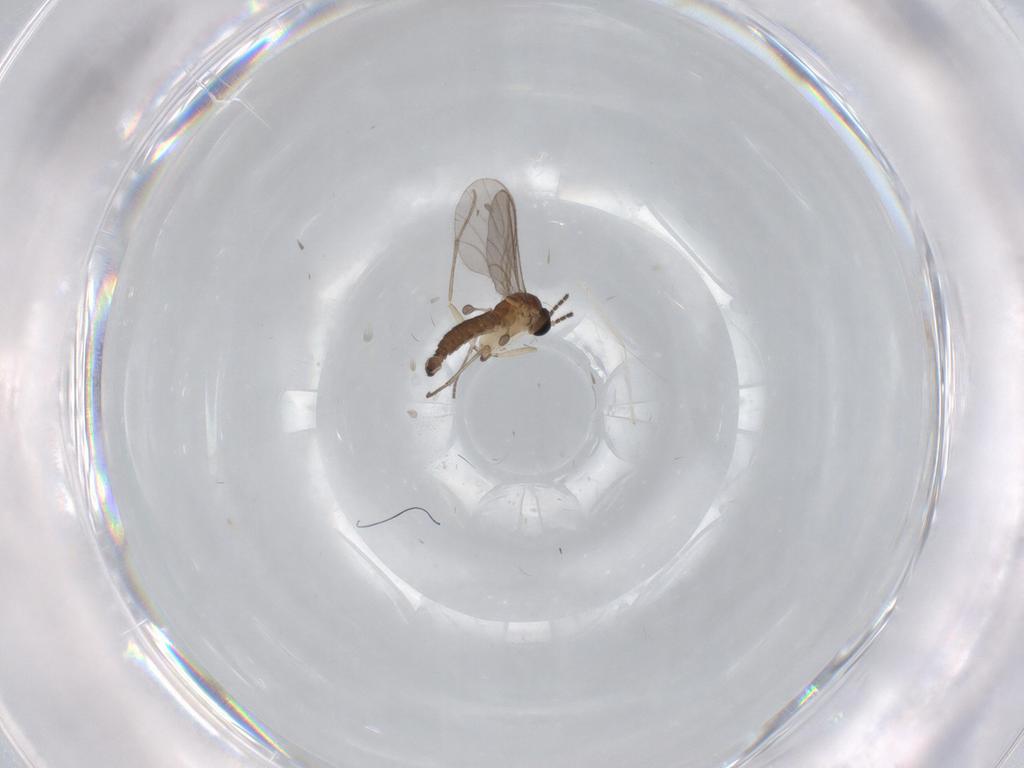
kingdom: Animalia
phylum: Arthropoda
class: Insecta
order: Diptera
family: Sciaridae
